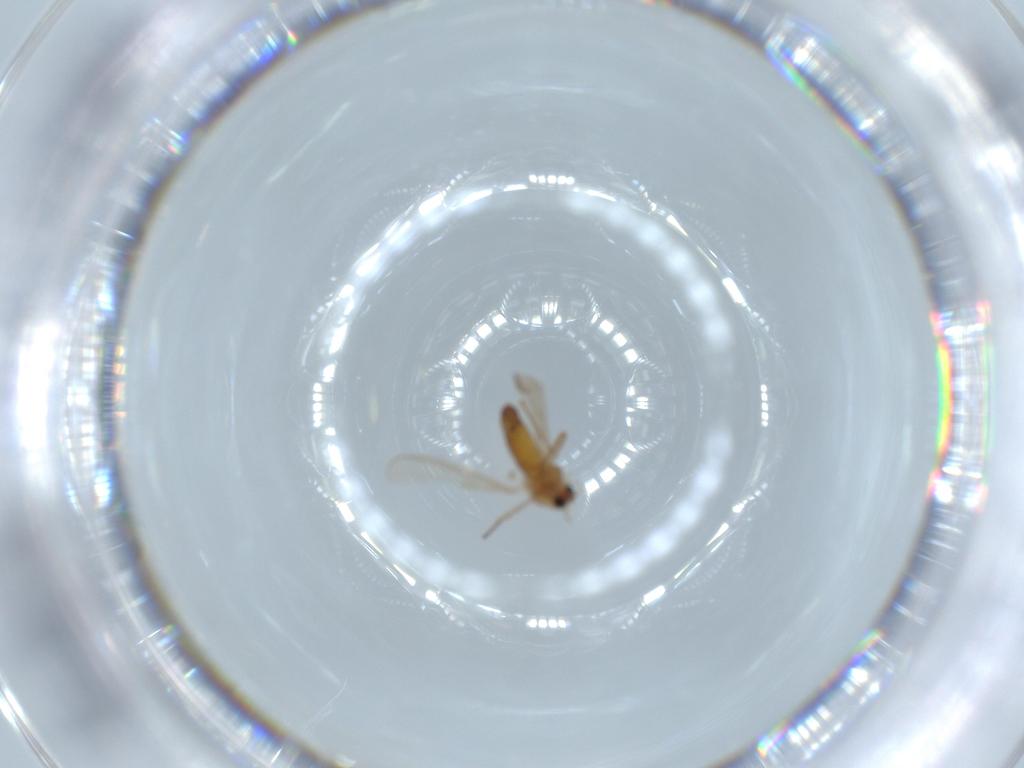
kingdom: Animalia
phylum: Arthropoda
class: Insecta
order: Diptera
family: Chironomidae
